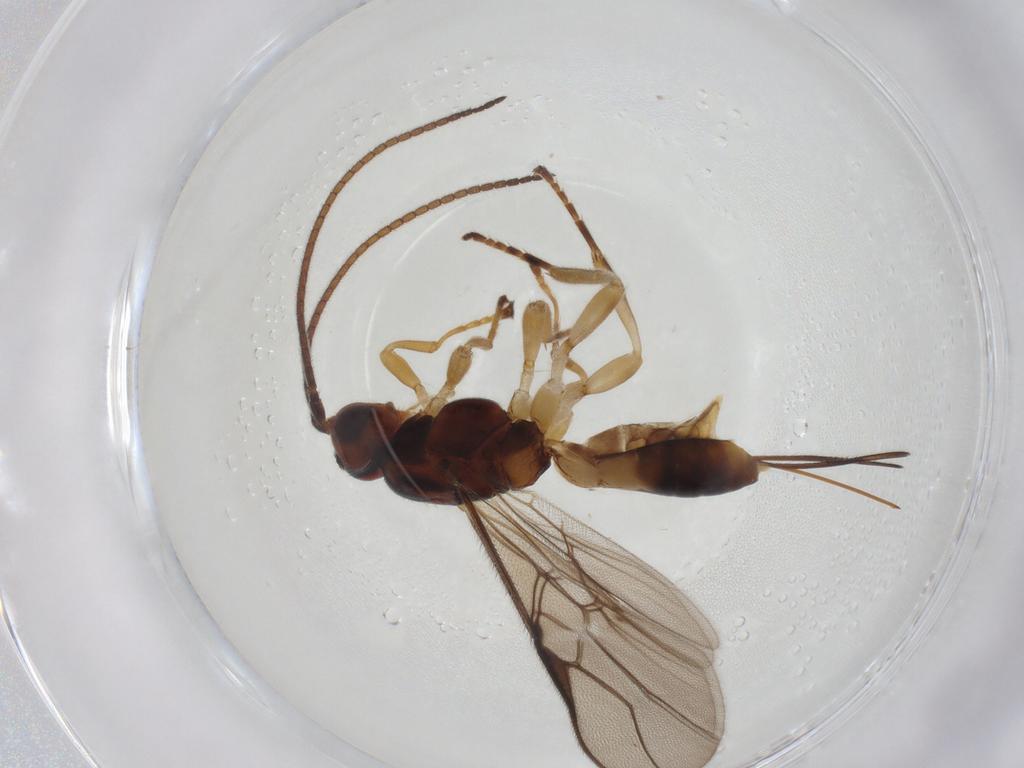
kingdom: Animalia
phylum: Arthropoda
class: Insecta
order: Hymenoptera
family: Braconidae
